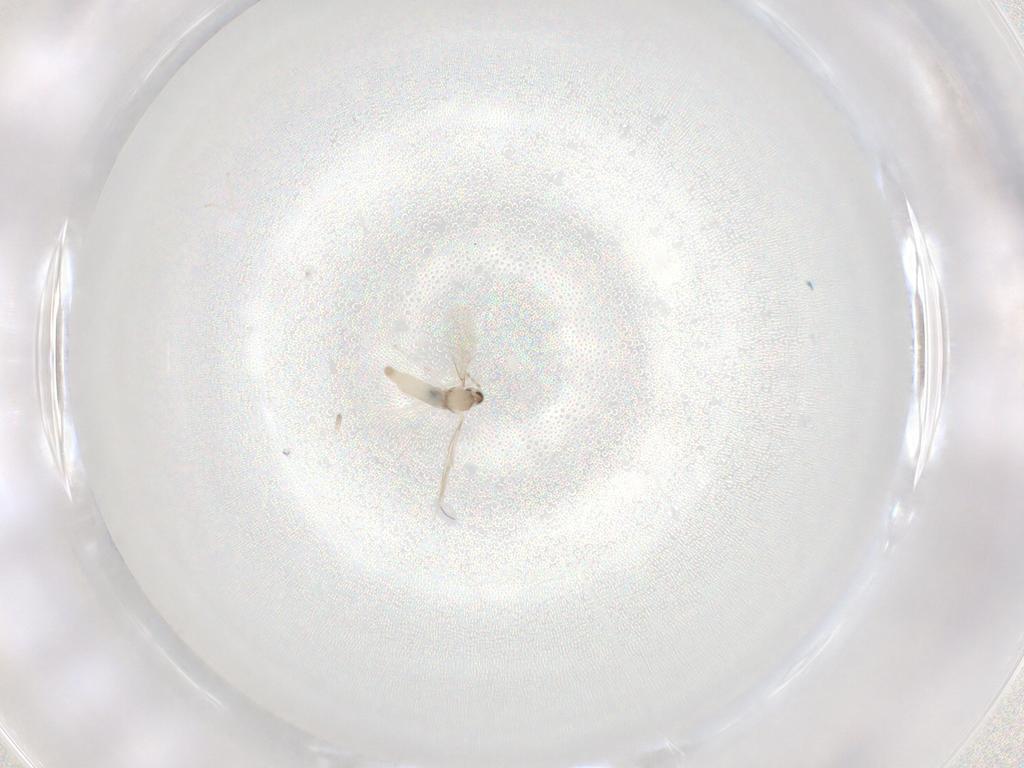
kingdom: Animalia
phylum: Arthropoda
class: Insecta
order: Diptera
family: Cecidomyiidae
